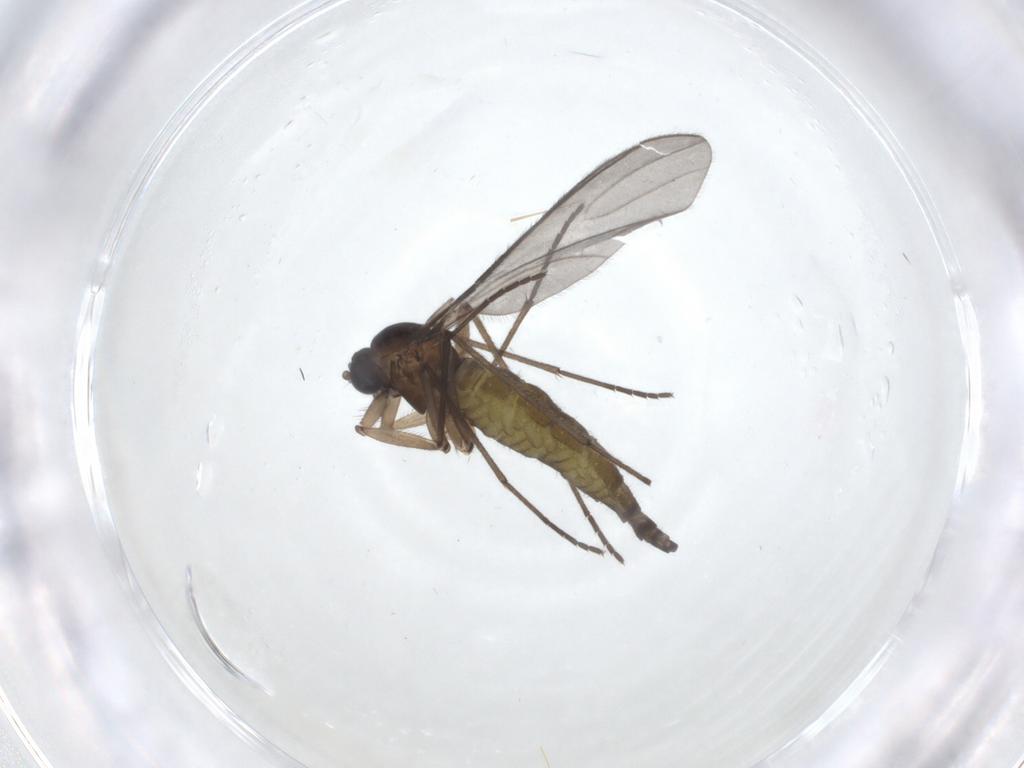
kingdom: Animalia
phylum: Arthropoda
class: Insecta
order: Diptera
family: Sciaridae
